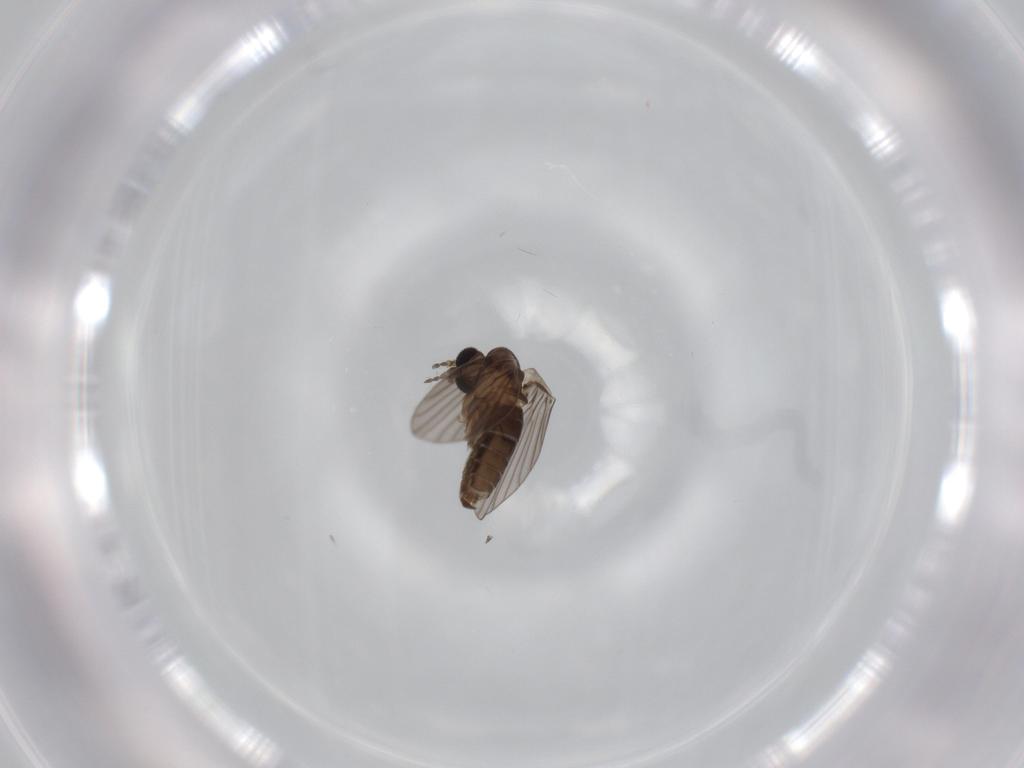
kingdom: Animalia
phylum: Arthropoda
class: Insecta
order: Diptera
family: Psychodidae
